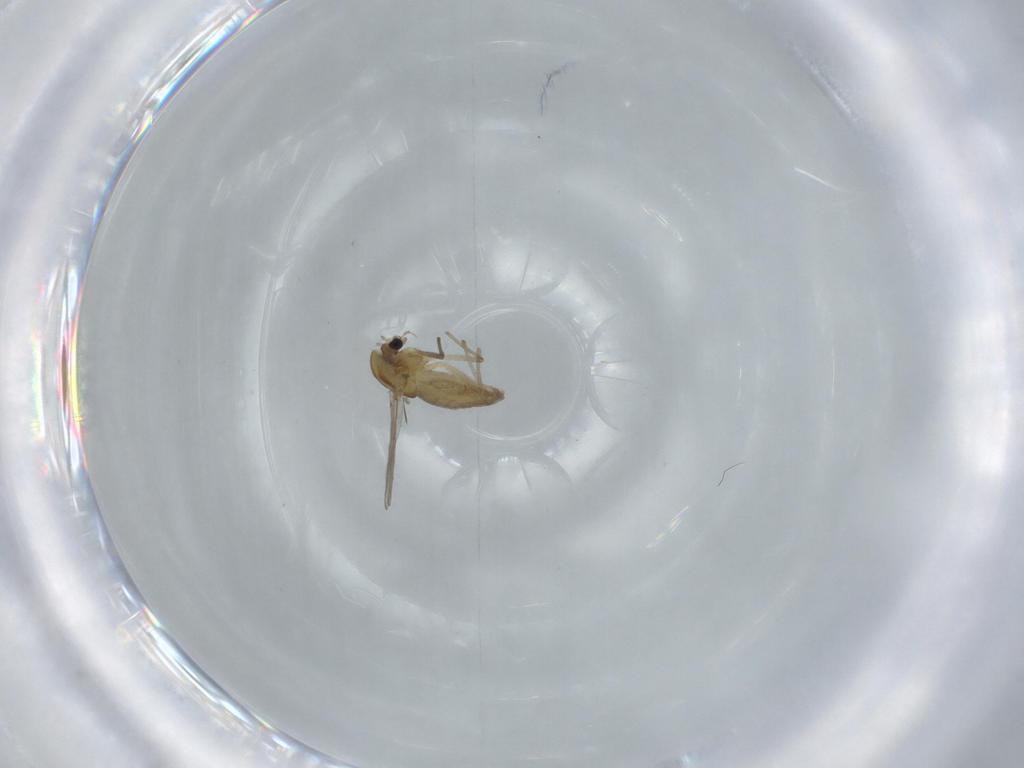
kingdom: Animalia
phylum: Arthropoda
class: Insecta
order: Diptera
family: Chironomidae
